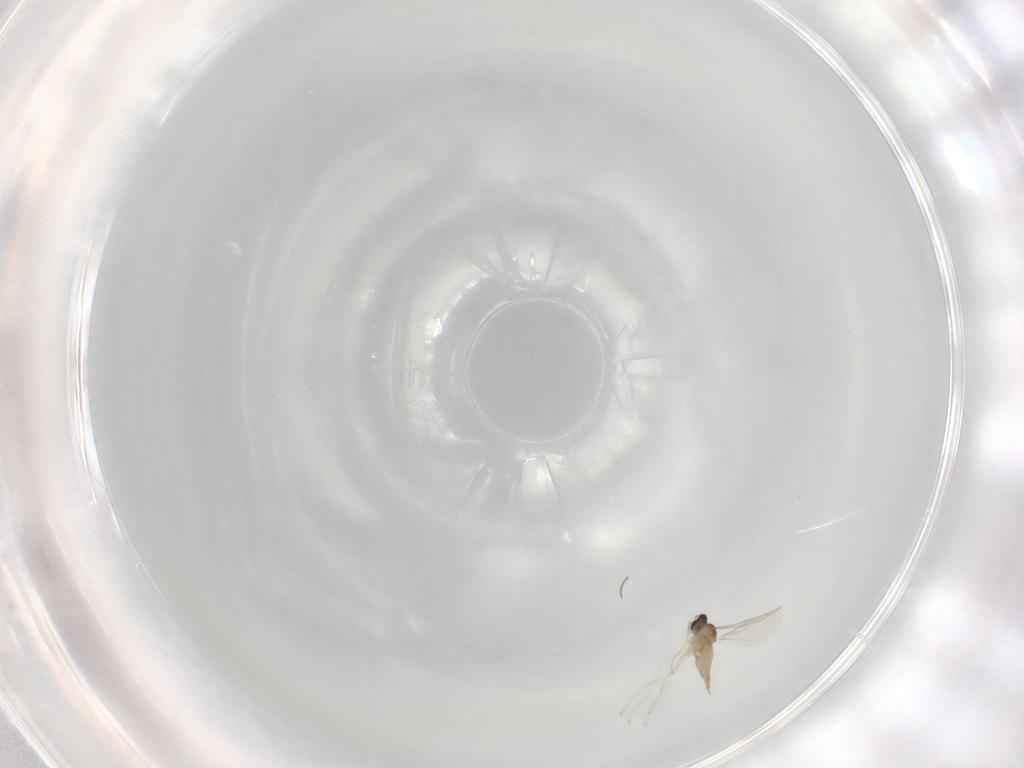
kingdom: Animalia
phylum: Arthropoda
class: Insecta
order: Diptera
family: Cecidomyiidae
